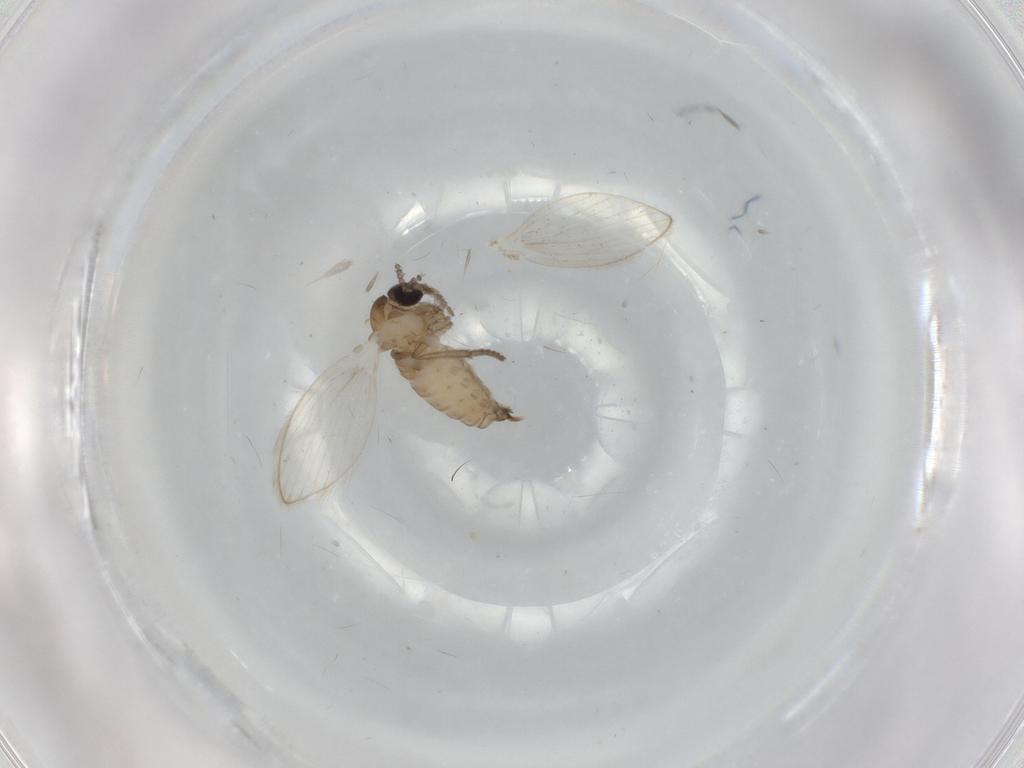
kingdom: Animalia
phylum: Arthropoda
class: Insecta
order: Diptera
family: Psychodidae
